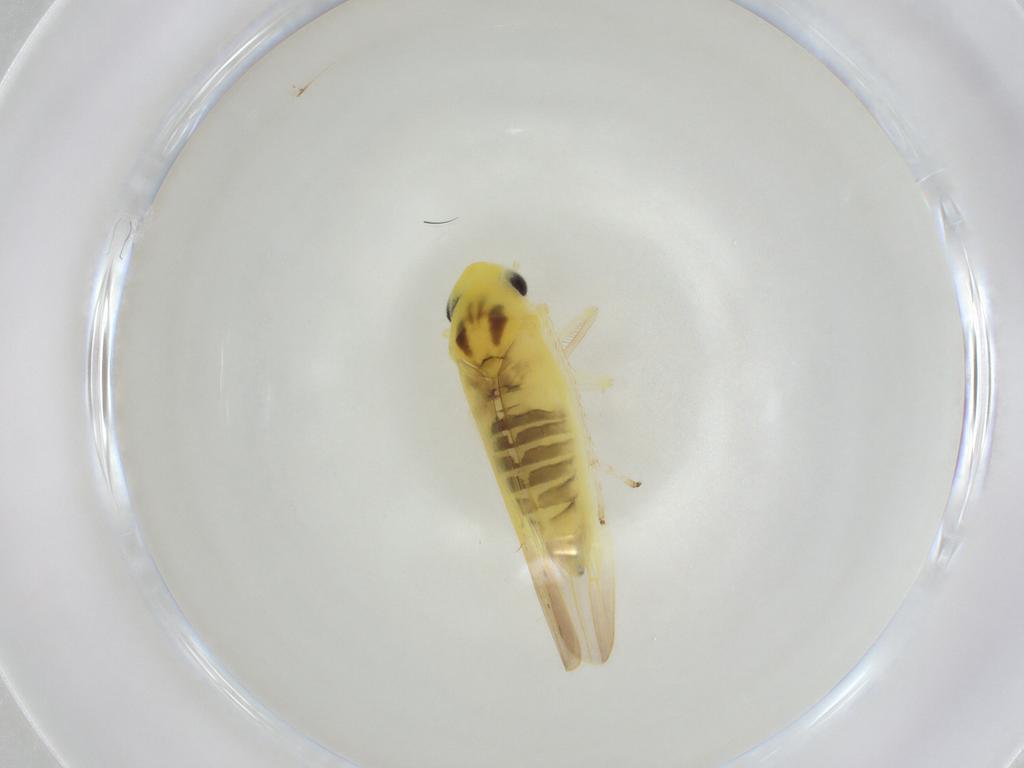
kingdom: Animalia
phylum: Arthropoda
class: Insecta
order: Hemiptera
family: Cicadellidae
